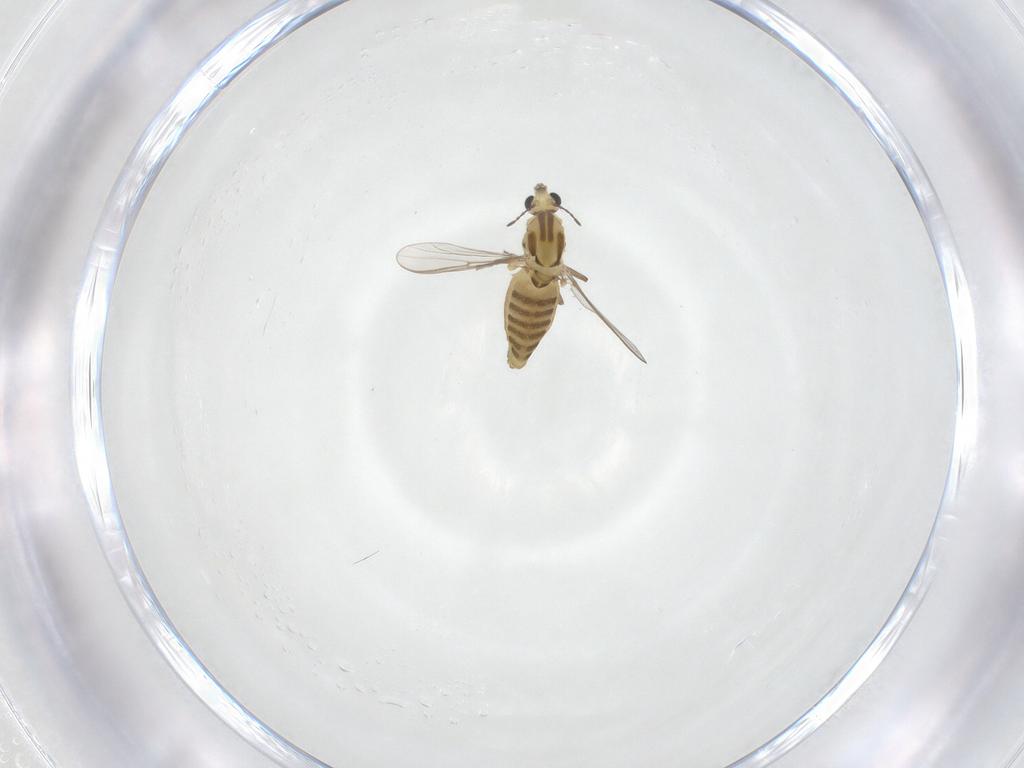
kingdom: Animalia
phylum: Arthropoda
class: Insecta
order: Diptera
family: Chironomidae
